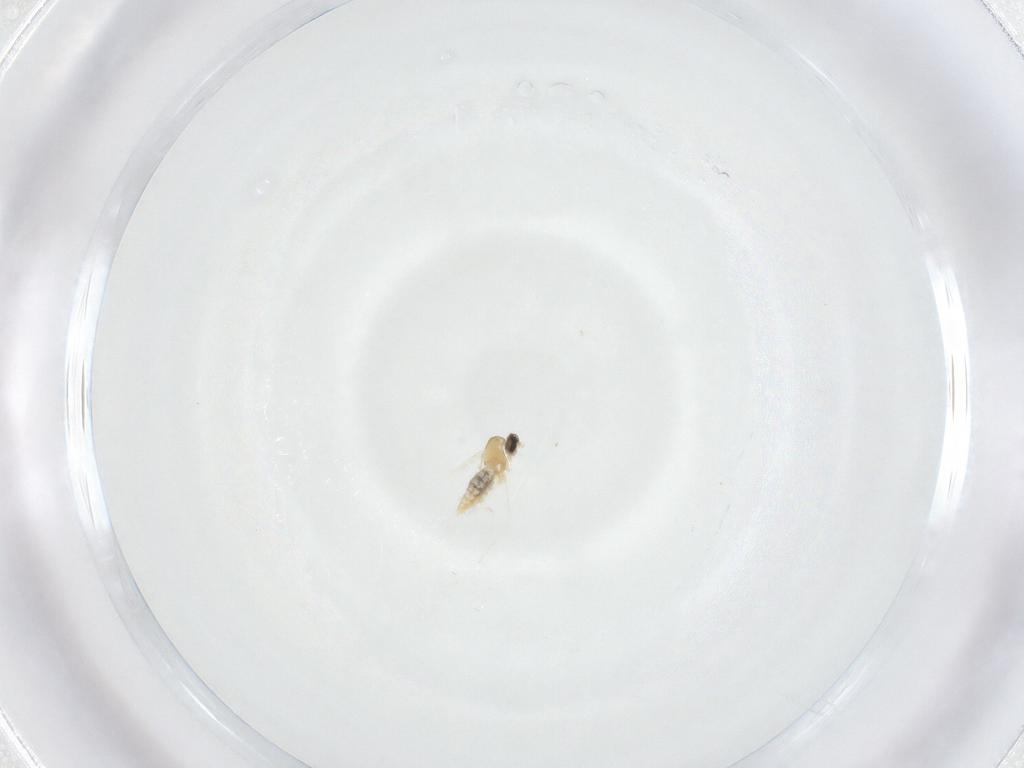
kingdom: Animalia
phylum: Arthropoda
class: Insecta
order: Diptera
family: Cecidomyiidae
